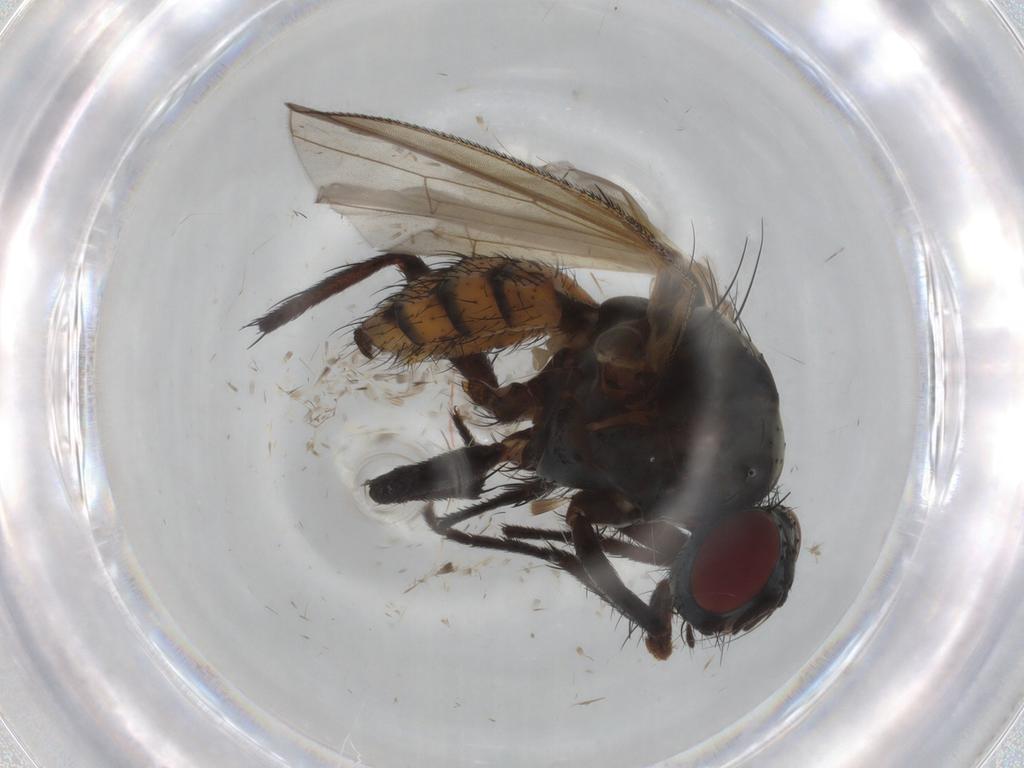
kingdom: Animalia
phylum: Arthropoda
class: Insecta
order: Diptera
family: Anthomyiidae
